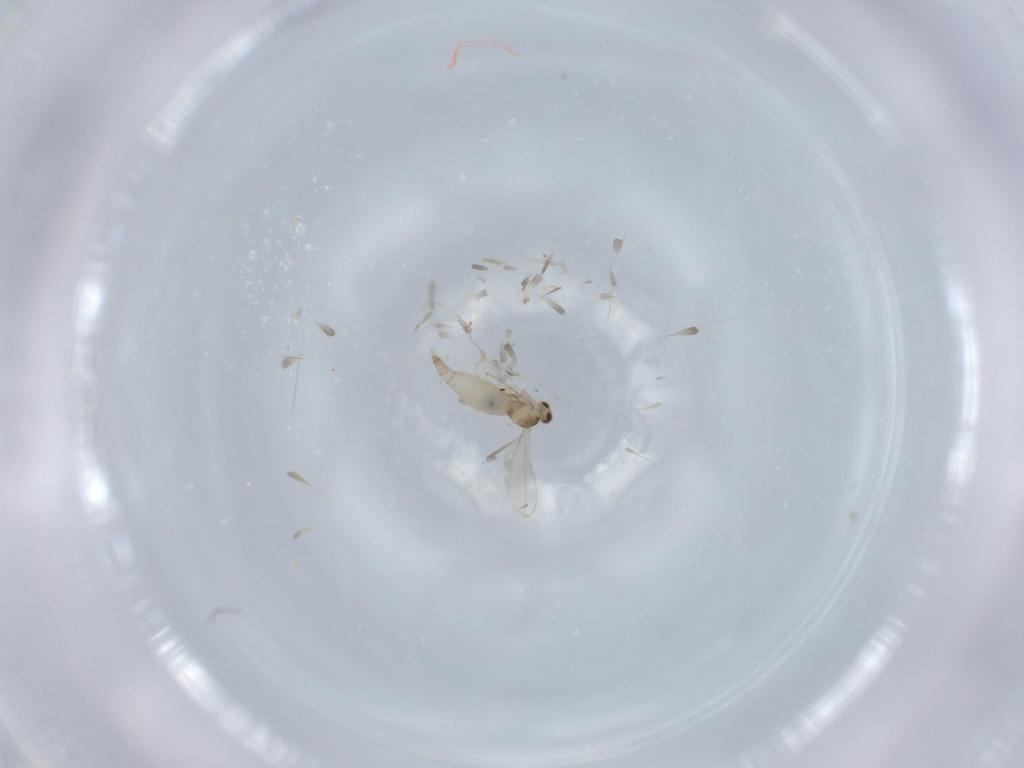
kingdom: Animalia
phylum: Arthropoda
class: Insecta
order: Diptera
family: Cecidomyiidae
